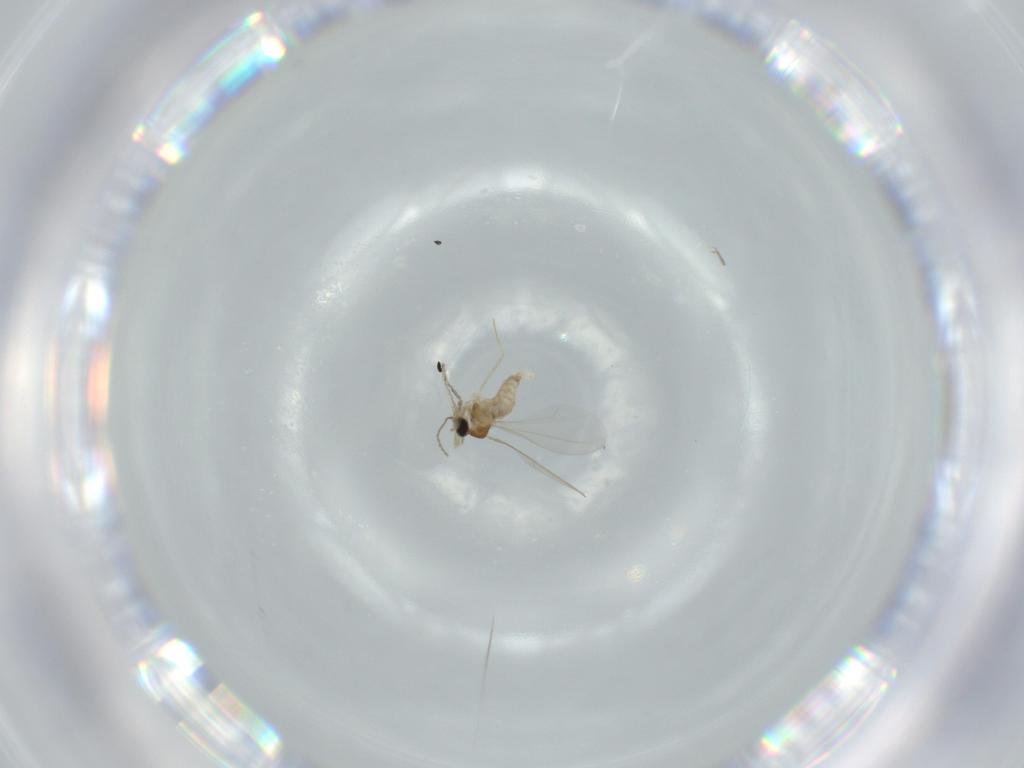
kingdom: Animalia
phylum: Arthropoda
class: Insecta
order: Diptera
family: Cecidomyiidae
